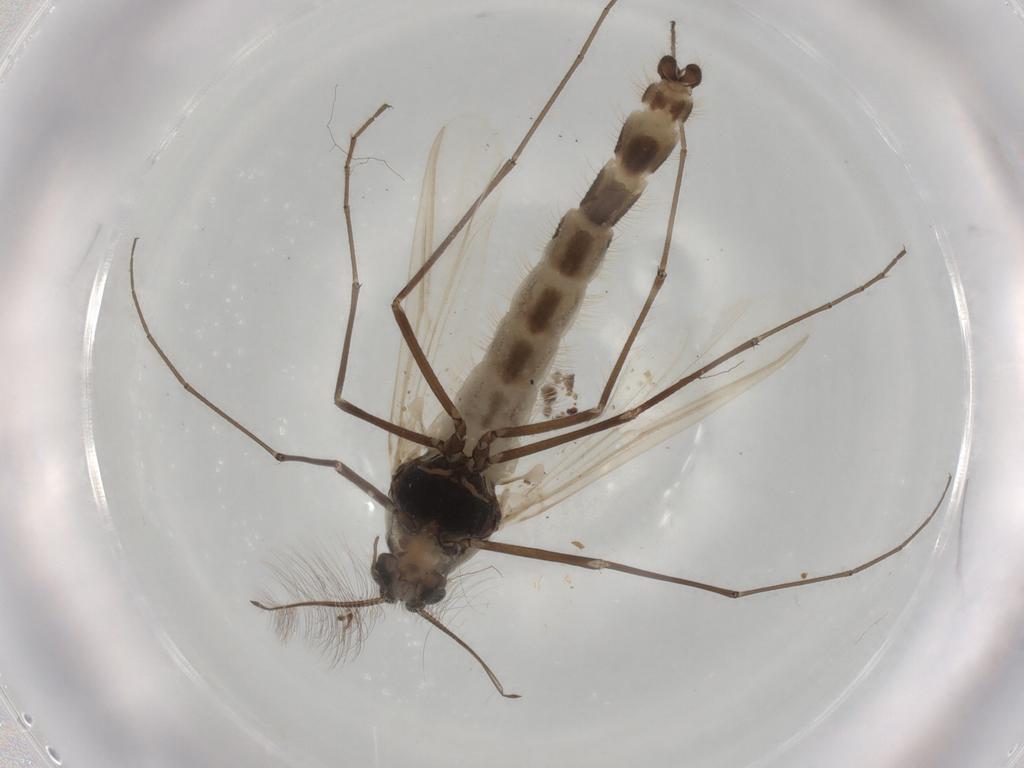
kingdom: Animalia
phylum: Arthropoda
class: Insecta
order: Diptera
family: Chironomidae
